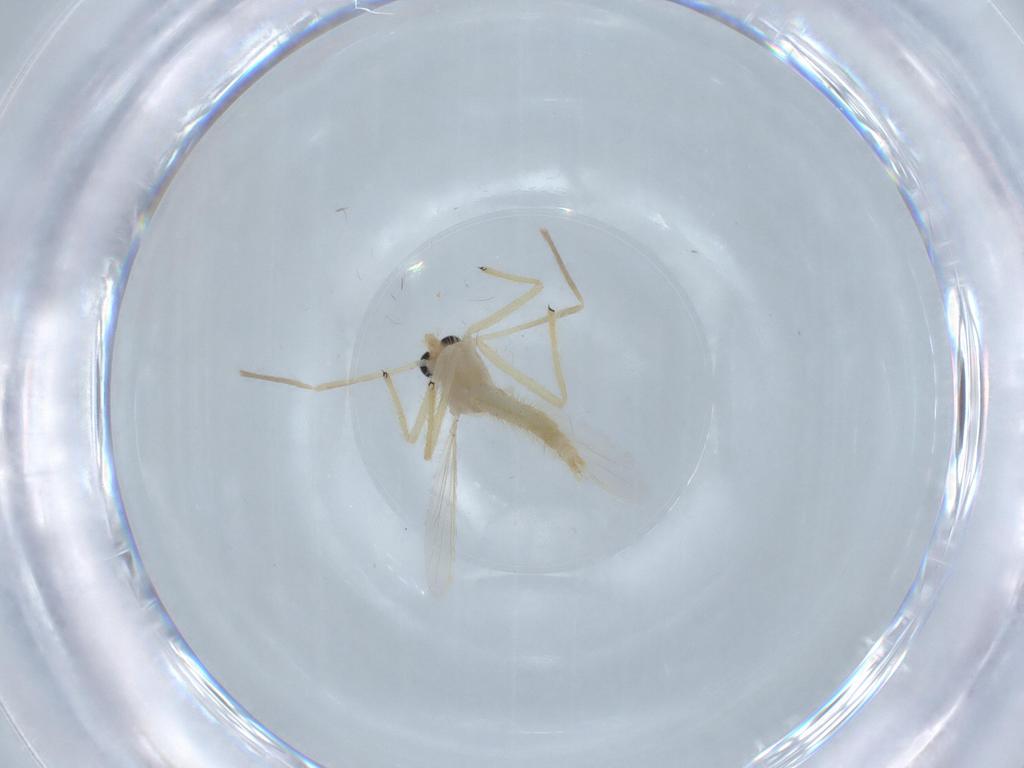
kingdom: Animalia
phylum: Arthropoda
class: Insecta
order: Diptera
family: Chironomidae
